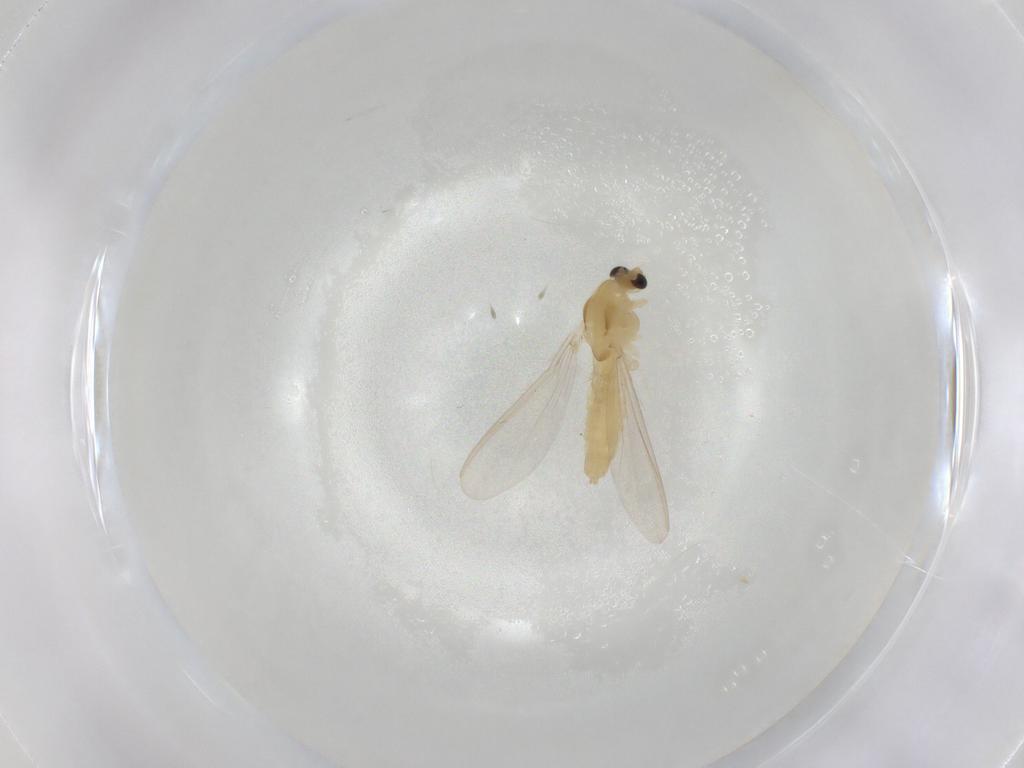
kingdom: Animalia
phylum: Arthropoda
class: Insecta
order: Diptera
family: Chironomidae
